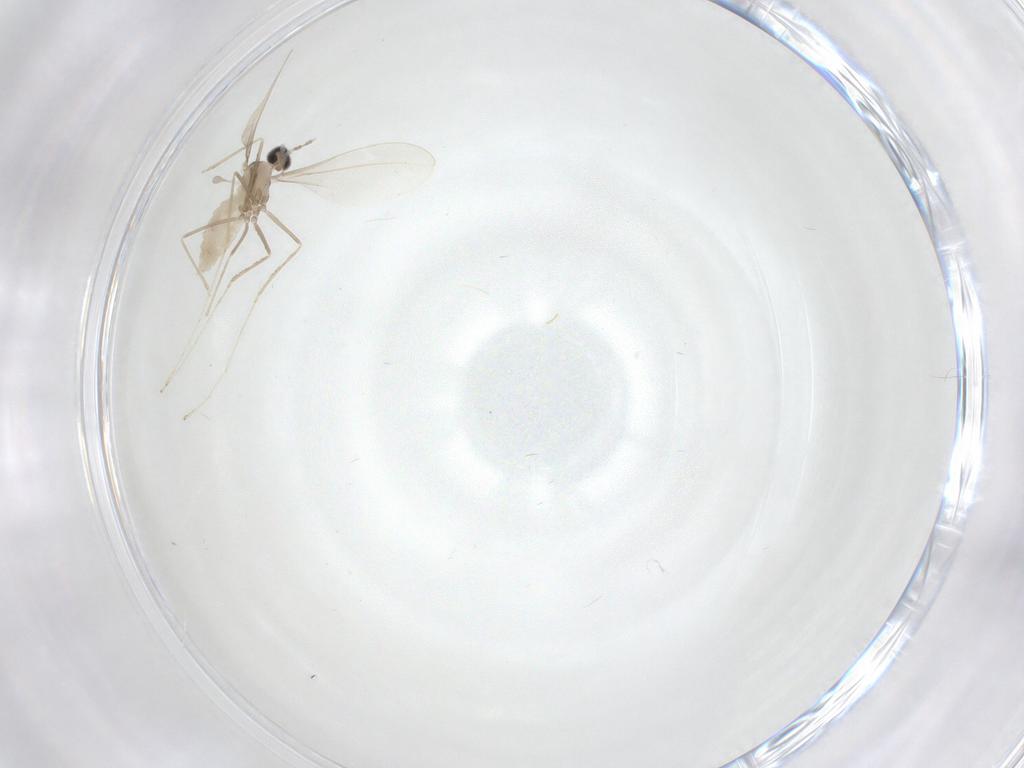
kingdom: Animalia
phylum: Arthropoda
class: Insecta
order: Diptera
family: Cecidomyiidae
